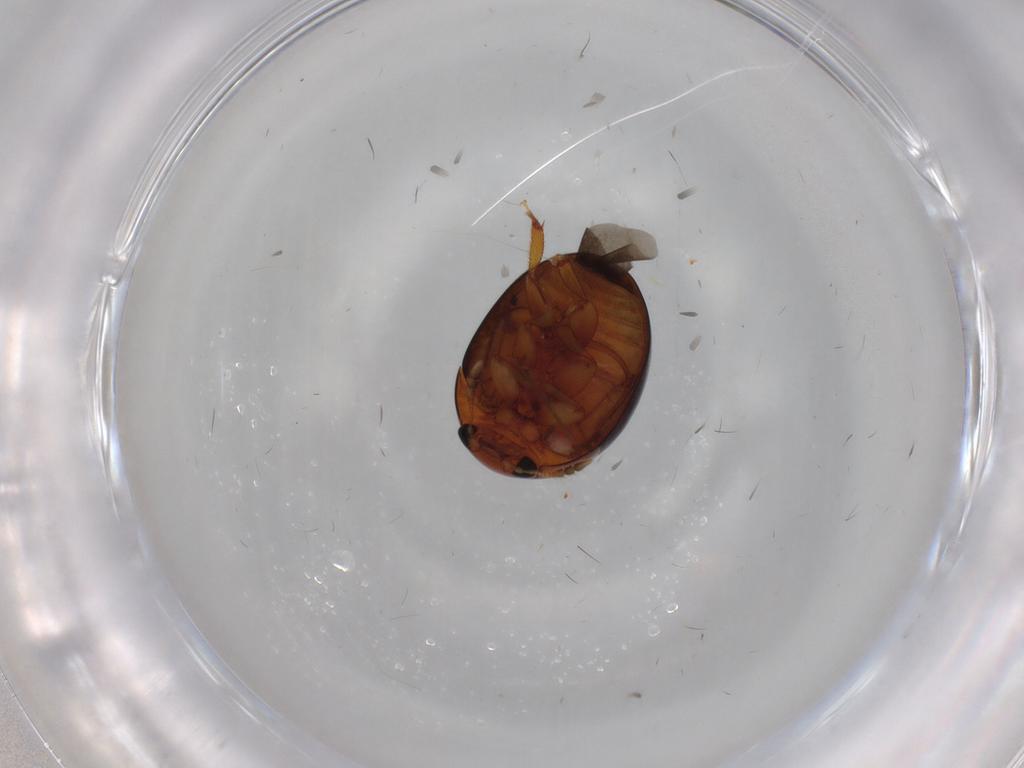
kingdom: Animalia
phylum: Arthropoda
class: Insecta
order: Coleoptera
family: Phalacridae
